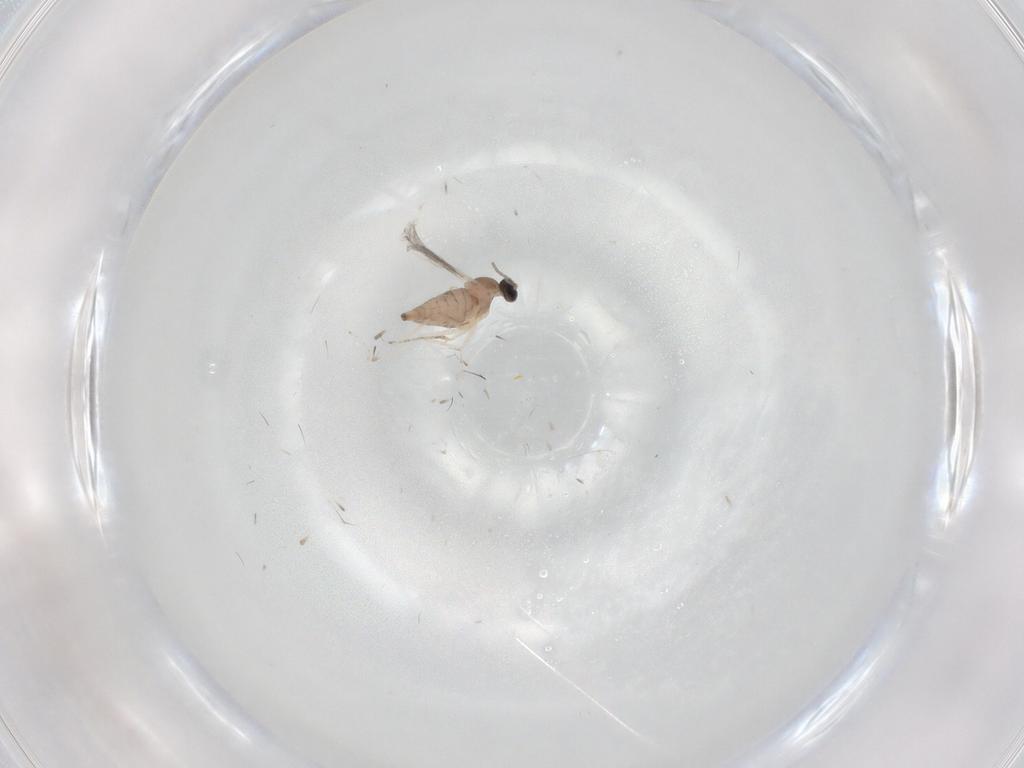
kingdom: Animalia
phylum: Arthropoda
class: Insecta
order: Diptera
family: Cecidomyiidae
